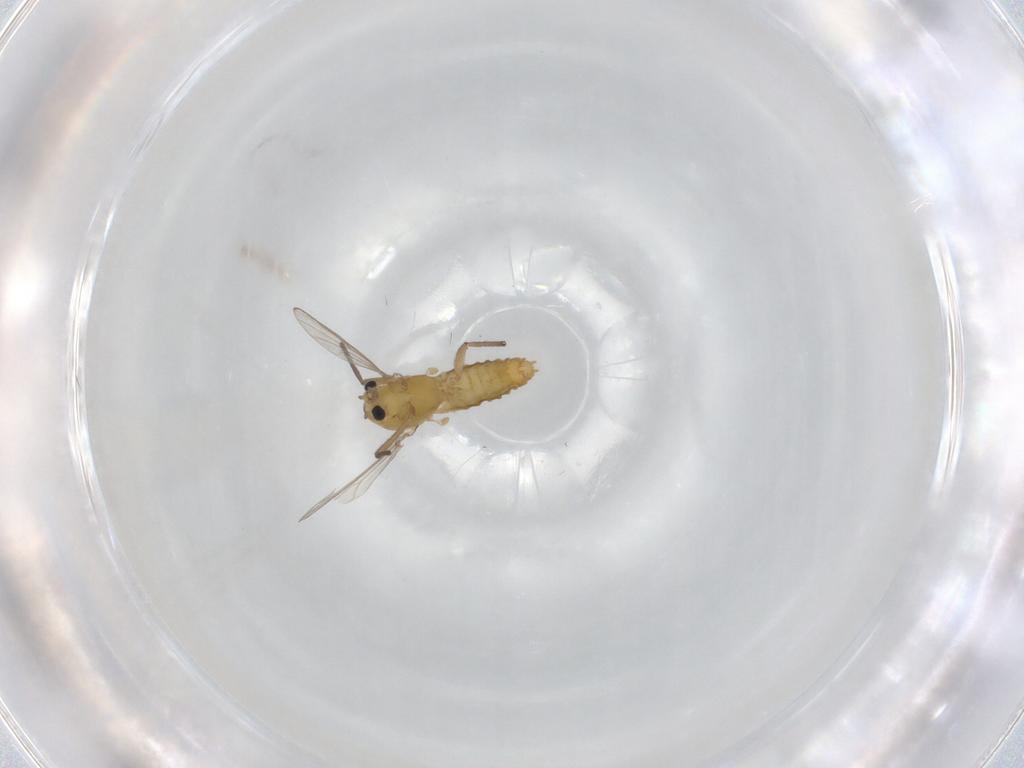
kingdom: Animalia
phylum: Arthropoda
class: Insecta
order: Diptera
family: Chironomidae
